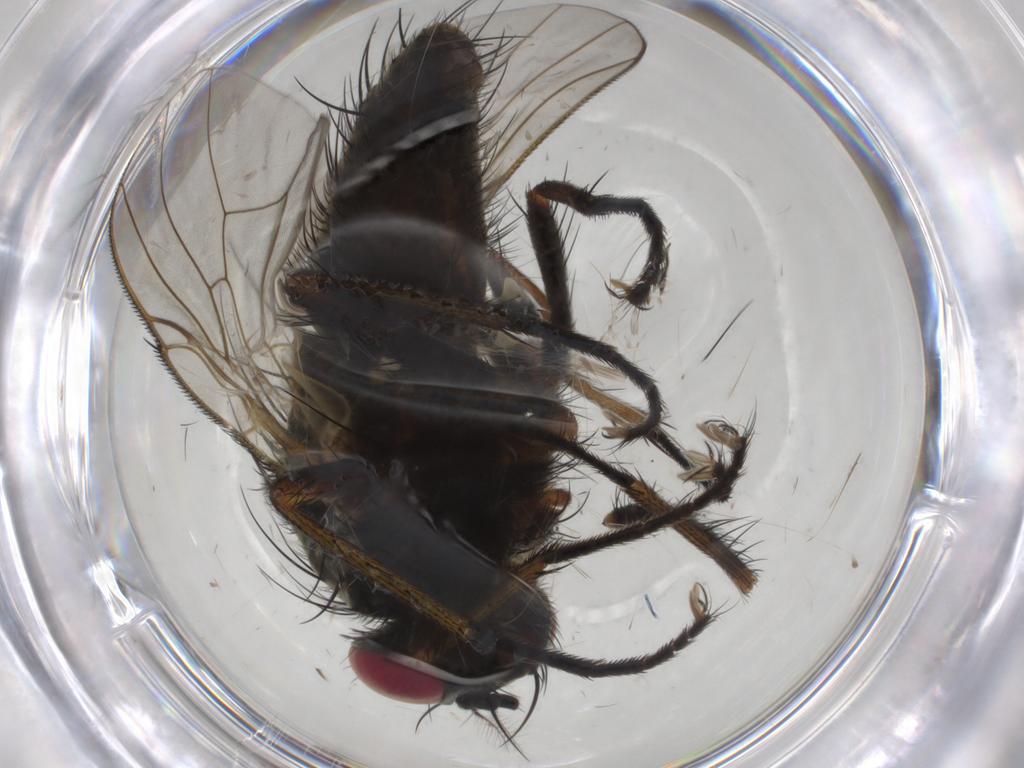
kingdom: Animalia
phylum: Arthropoda
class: Insecta
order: Diptera
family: Muscidae
